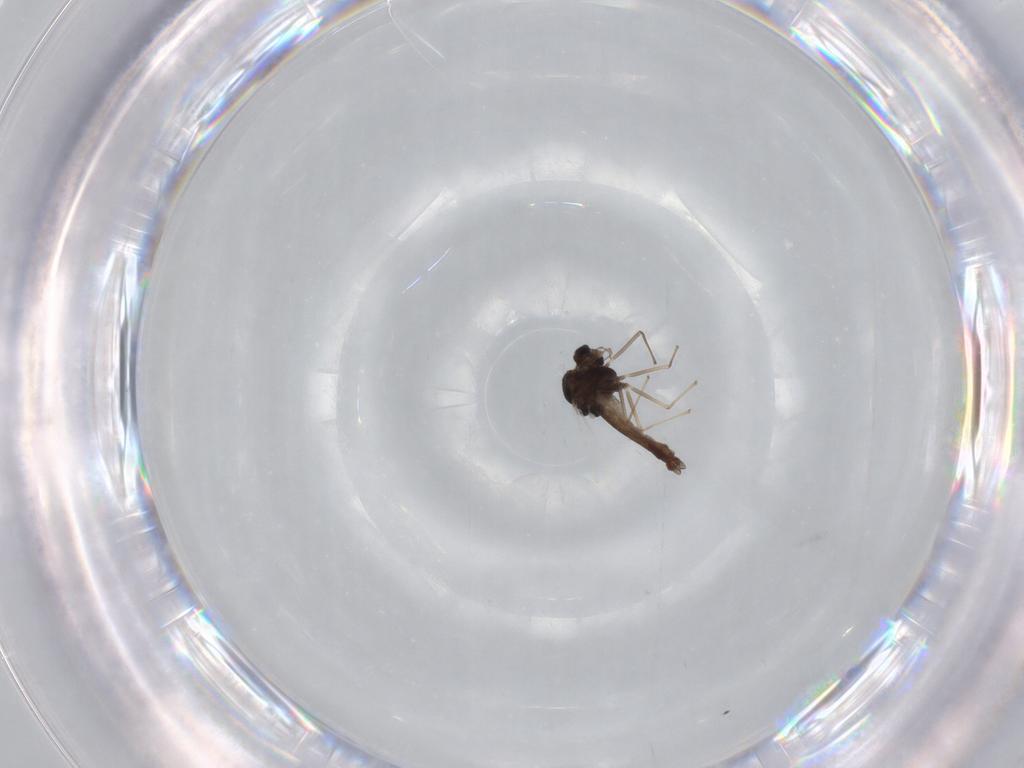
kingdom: Animalia
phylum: Arthropoda
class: Insecta
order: Diptera
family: Chironomidae
